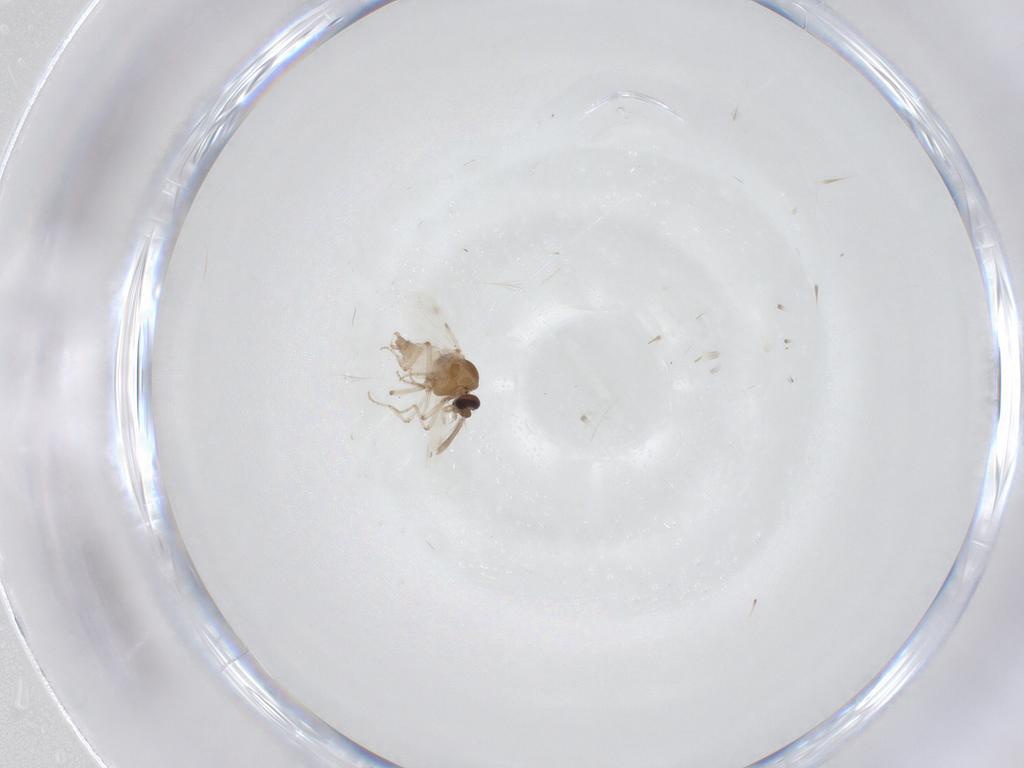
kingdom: Animalia
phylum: Arthropoda
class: Insecta
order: Diptera
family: Ceratopogonidae
